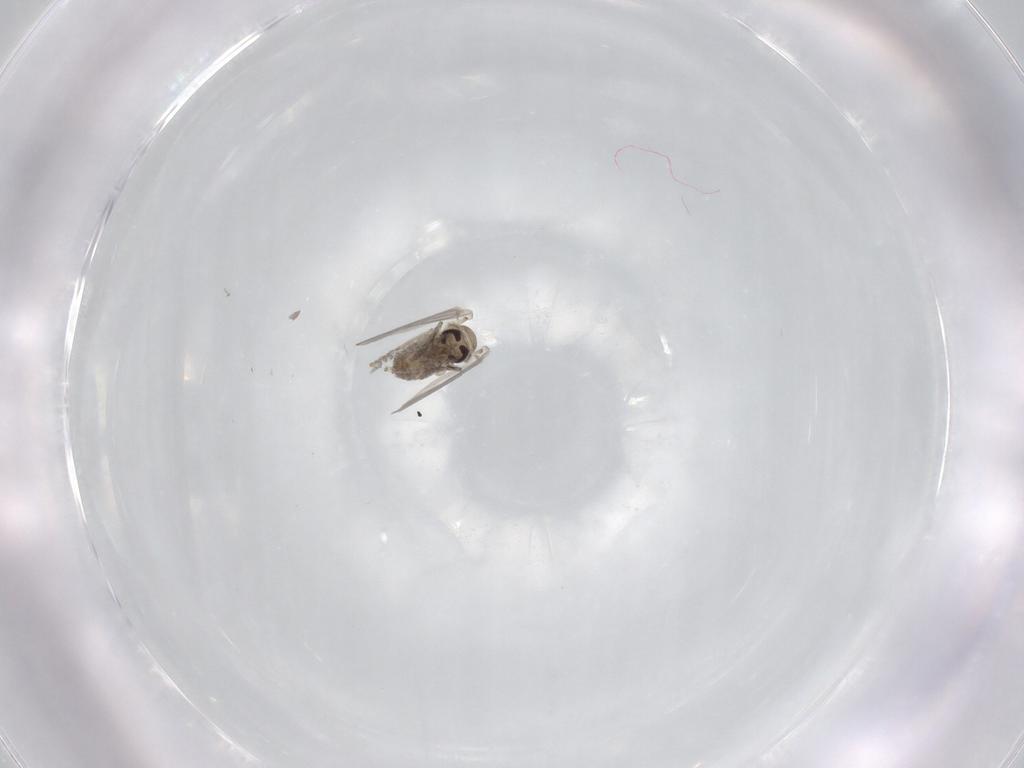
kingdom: Animalia
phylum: Arthropoda
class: Insecta
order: Diptera
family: Psychodidae
